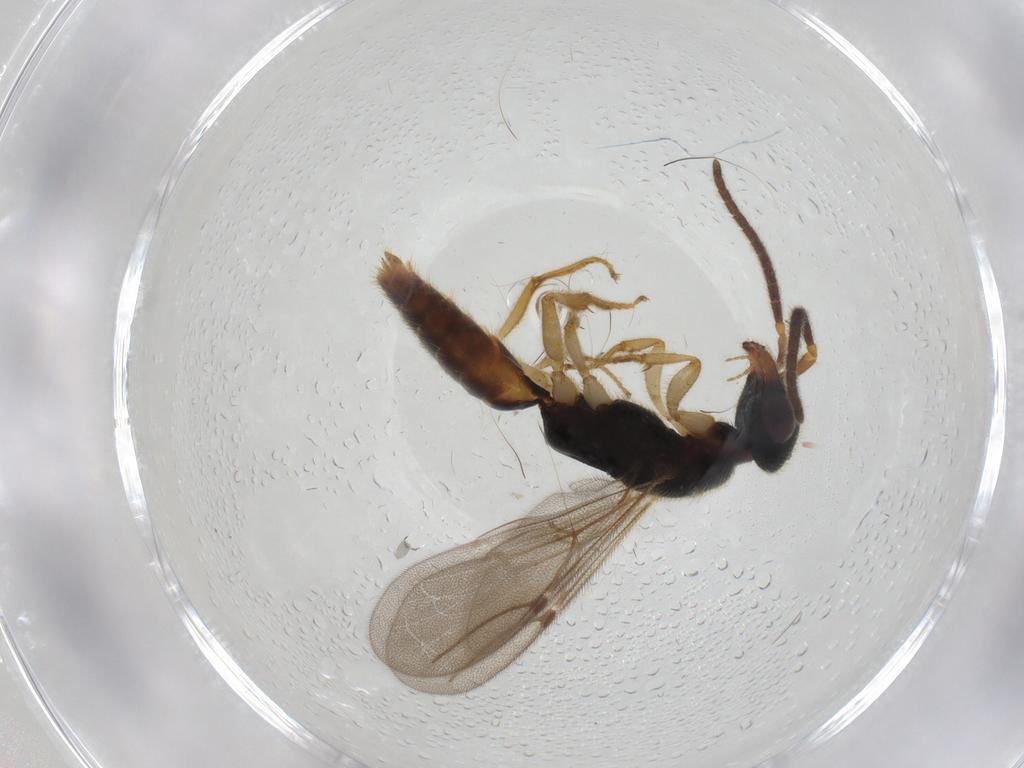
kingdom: Animalia
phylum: Arthropoda
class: Insecta
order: Hymenoptera
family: Bethylidae
